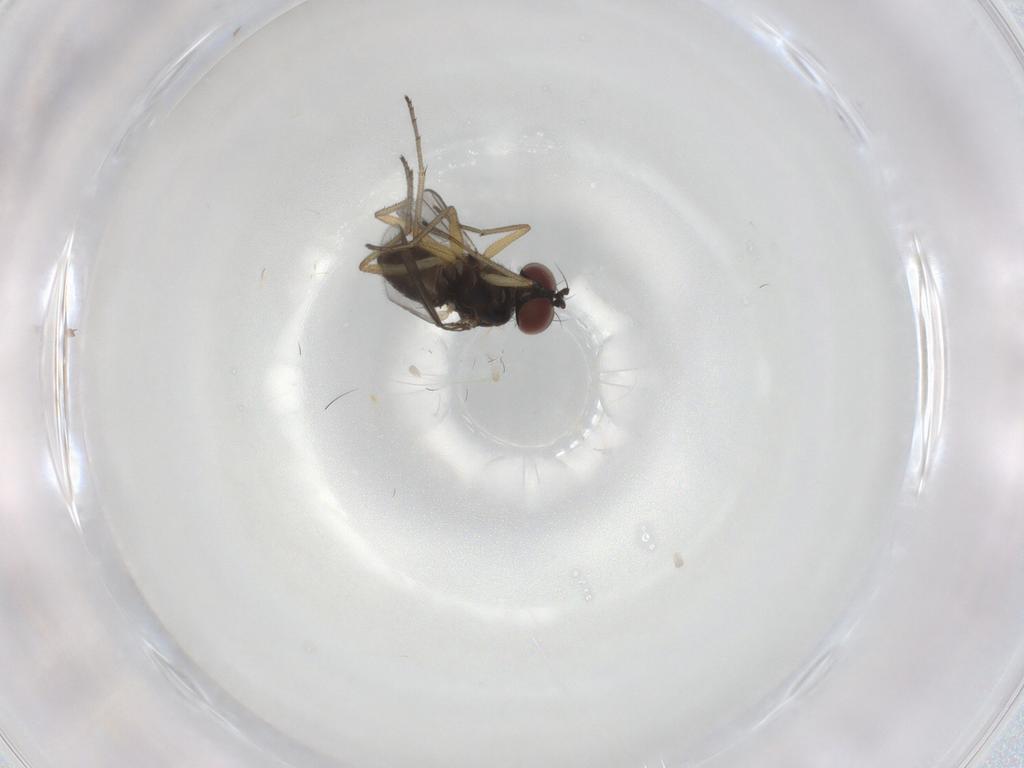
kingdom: Animalia
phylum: Arthropoda
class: Insecta
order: Diptera
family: Dolichopodidae
